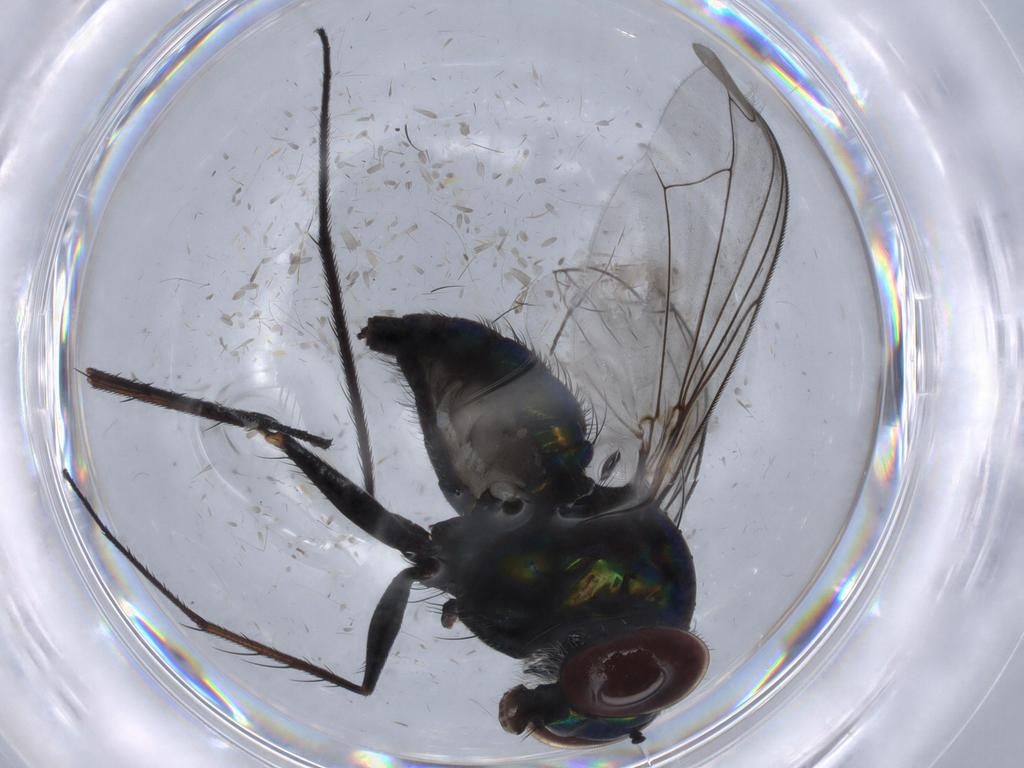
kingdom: Animalia
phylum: Arthropoda
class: Insecta
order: Diptera
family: Dolichopodidae
